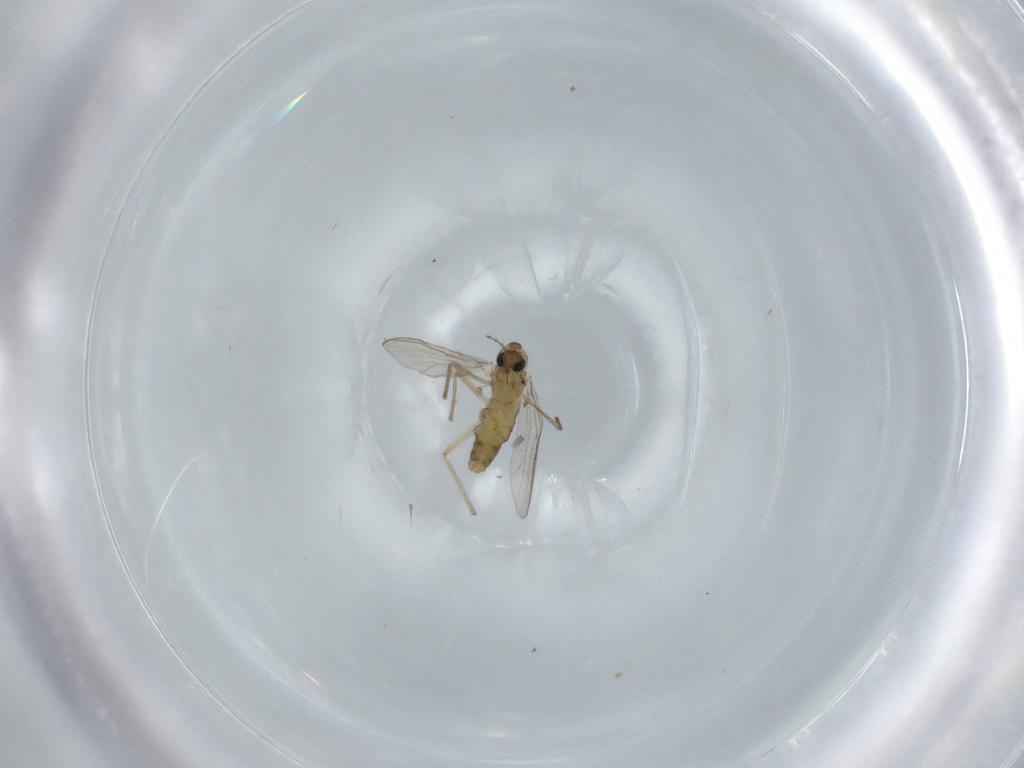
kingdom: Animalia
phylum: Arthropoda
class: Insecta
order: Diptera
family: Chironomidae
